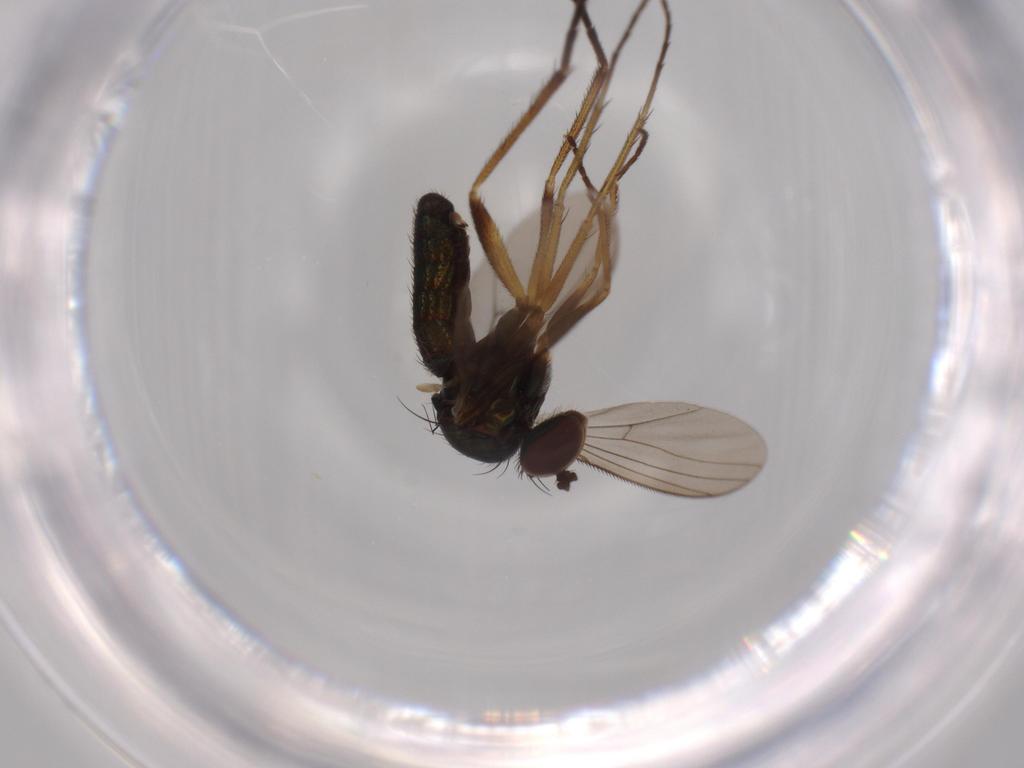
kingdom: Animalia
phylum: Arthropoda
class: Insecta
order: Diptera
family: Dolichopodidae
